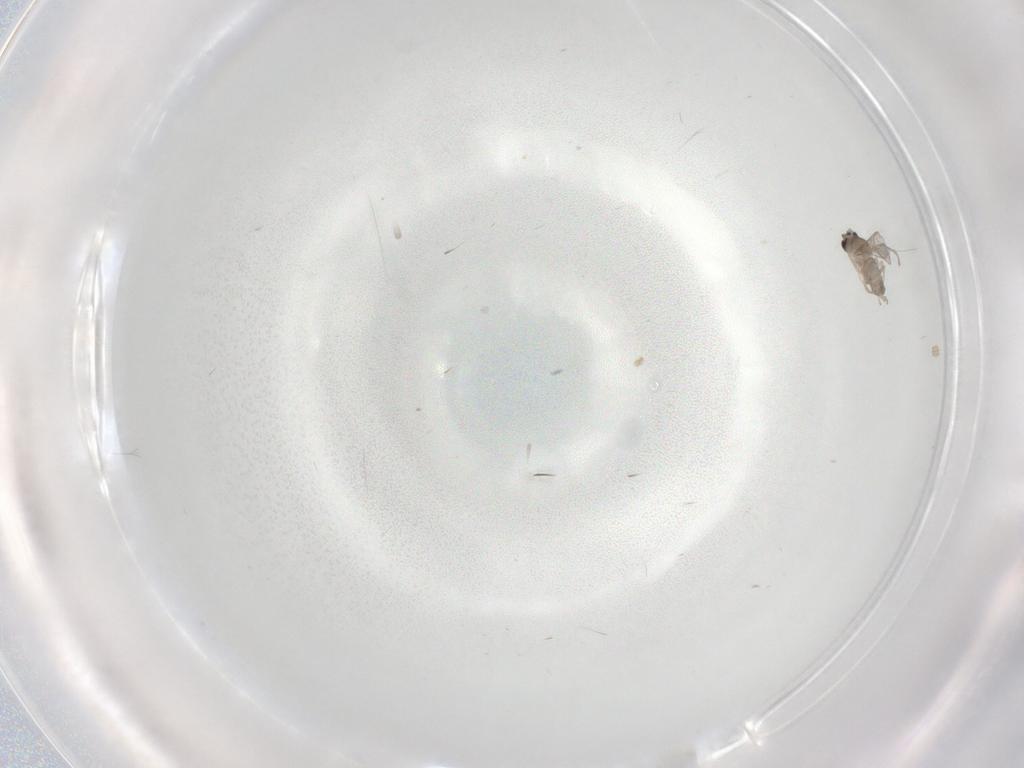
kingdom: Animalia
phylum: Arthropoda
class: Insecta
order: Diptera
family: Cecidomyiidae
